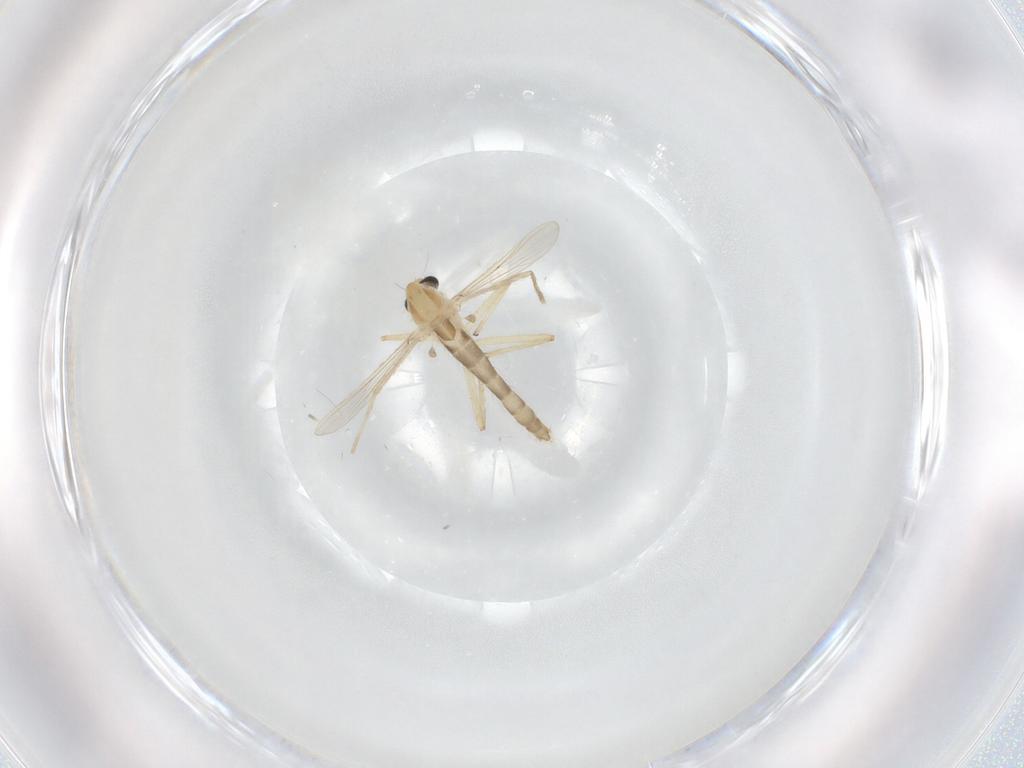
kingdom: Animalia
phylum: Arthropoda
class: Insecta
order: Diptera
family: Chironomidae
